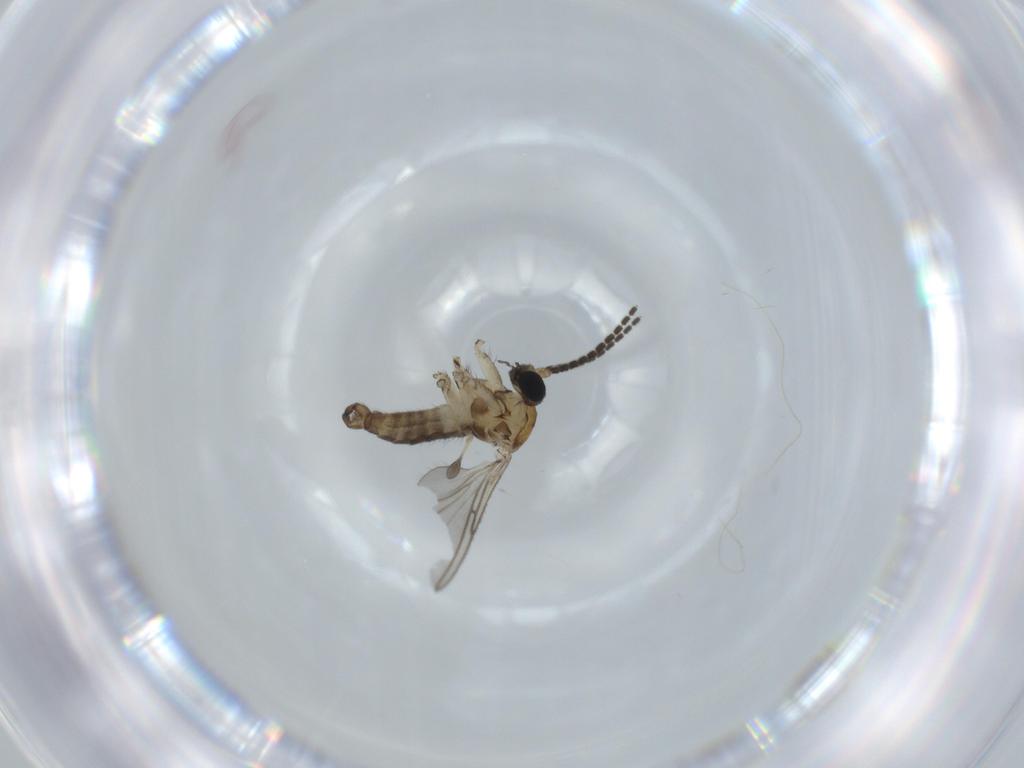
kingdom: Animalia
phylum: Arthropoda
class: Insecta
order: Diptera
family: Sciaridae
